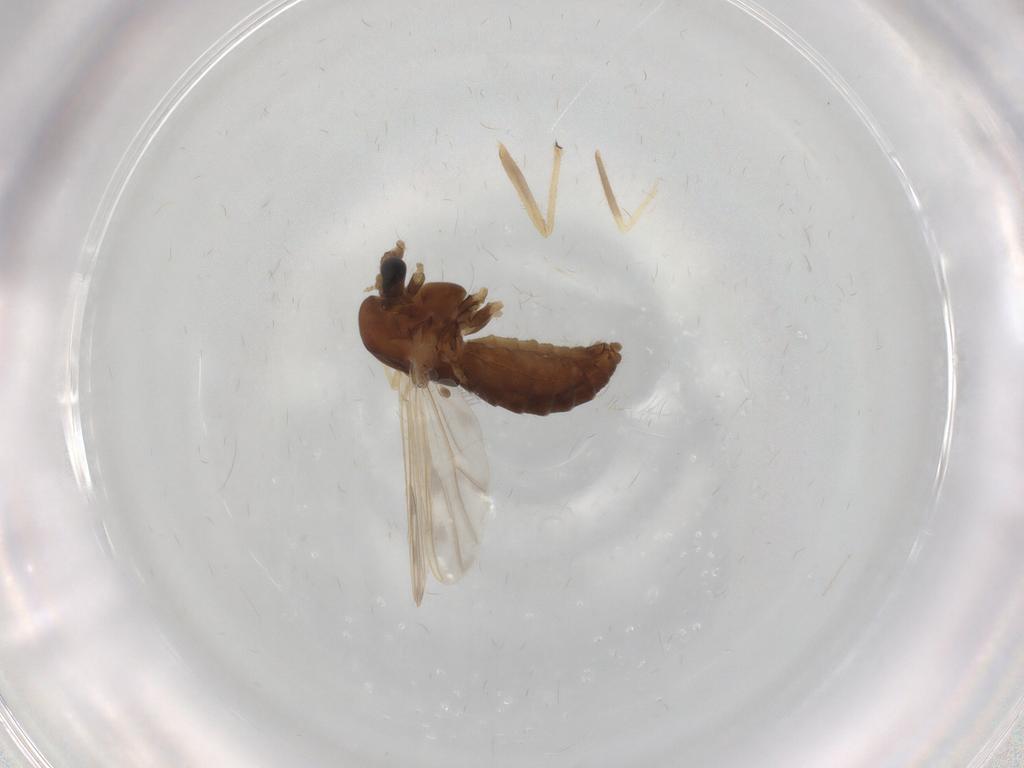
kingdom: Animalia
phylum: Arthropoda
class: Insecta
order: Diptera
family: Chironomidae
